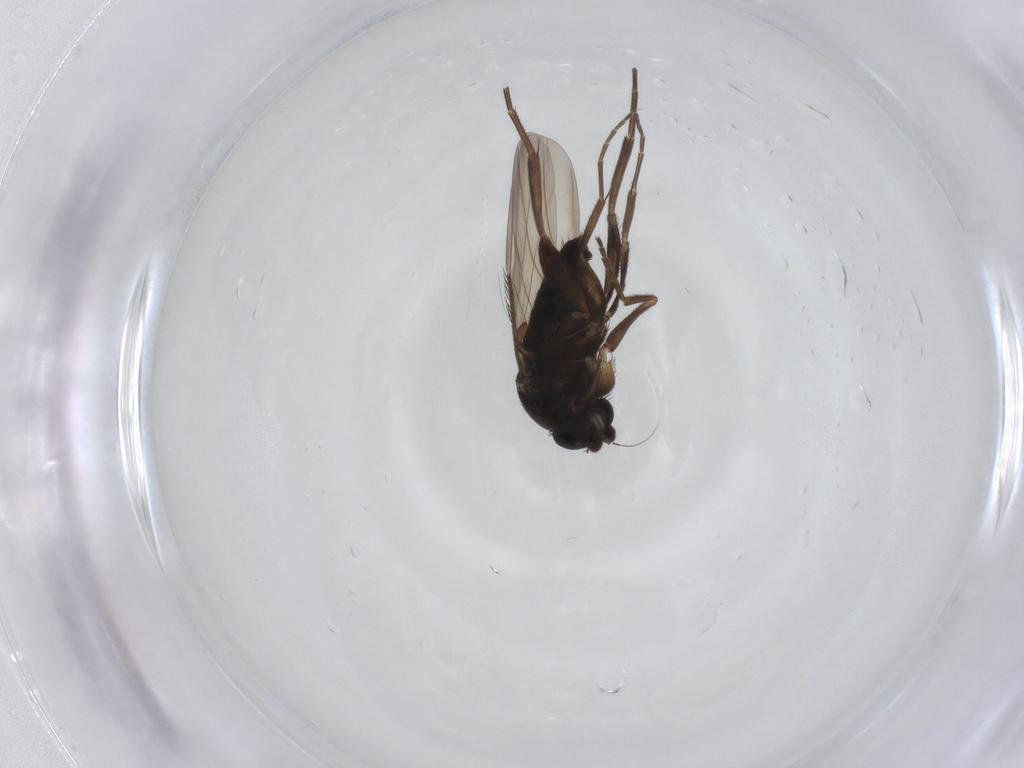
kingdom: Animalia
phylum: Arthropoda
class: Insecta
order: Diptera
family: Phoridae
